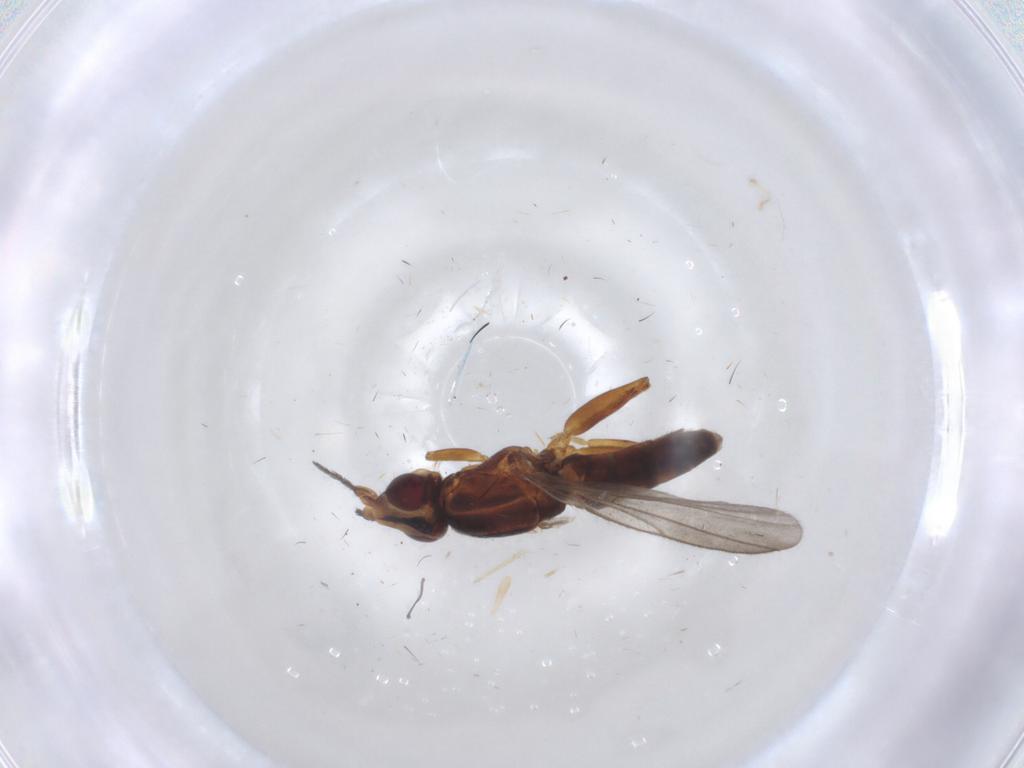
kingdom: Animalia
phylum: Arthropoda
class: Insecta
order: Diptera
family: Chloropidae
